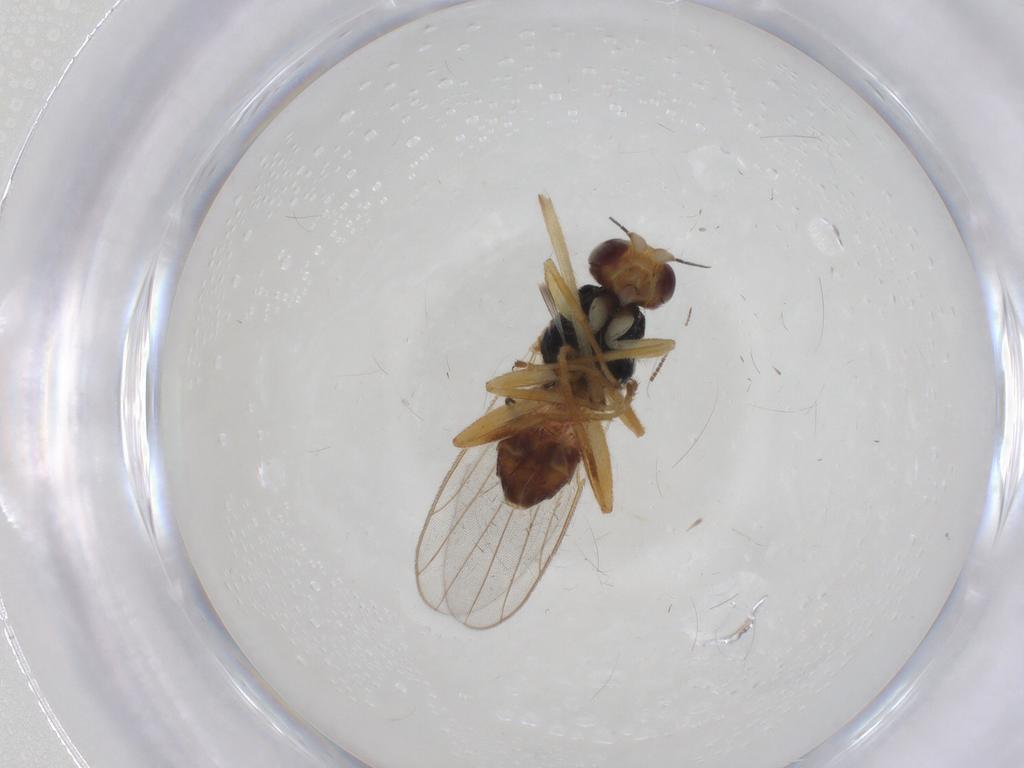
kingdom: Animalia
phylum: Arthropoda
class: Insecta
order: Diptera
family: Chloropidae
